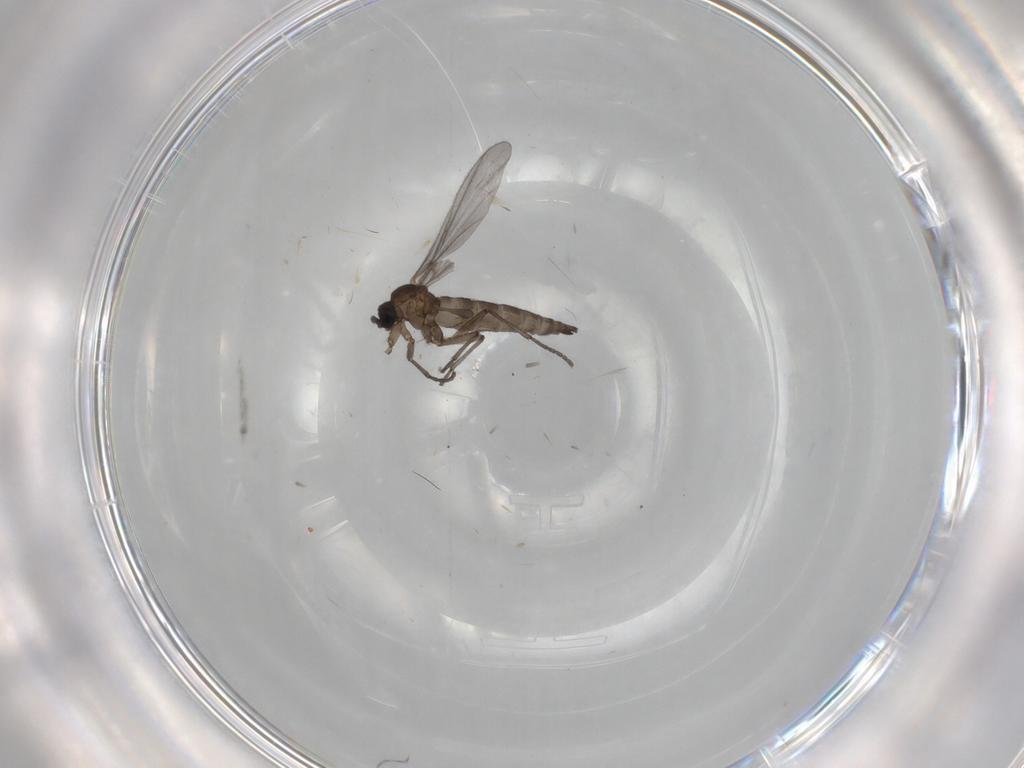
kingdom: Animalia
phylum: Arthropoda
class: Insecta
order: Diptera
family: Sciaridae
